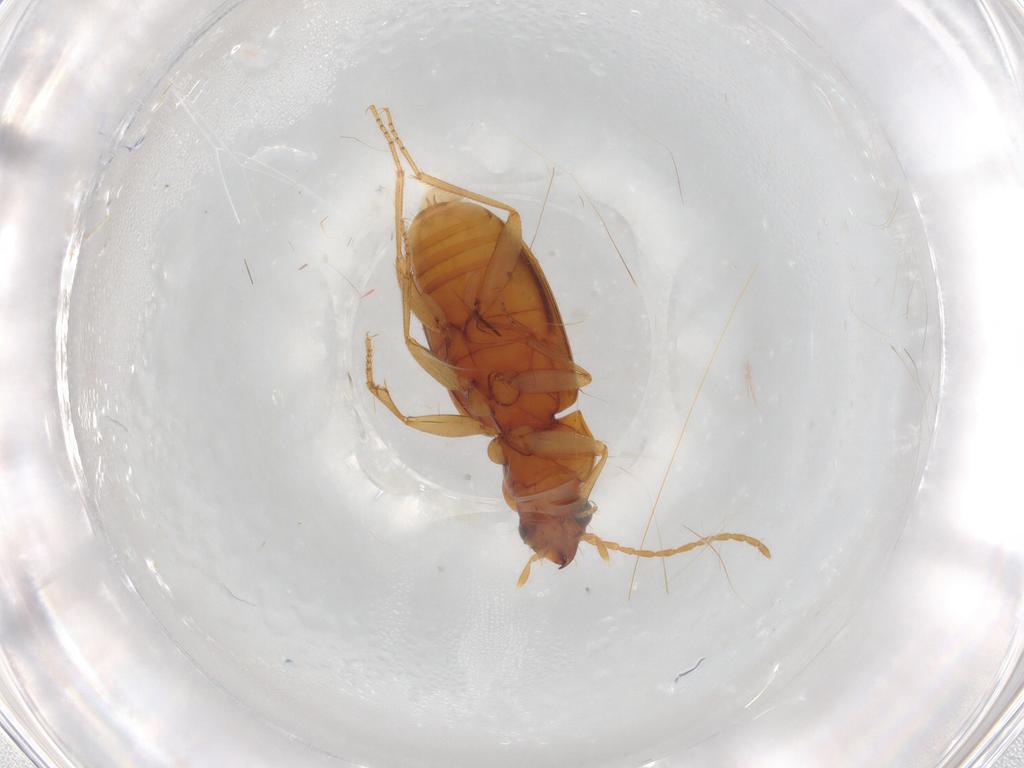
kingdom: Animalia
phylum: Arthropoda
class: Insecta
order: Coleoptera
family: Carabidae
